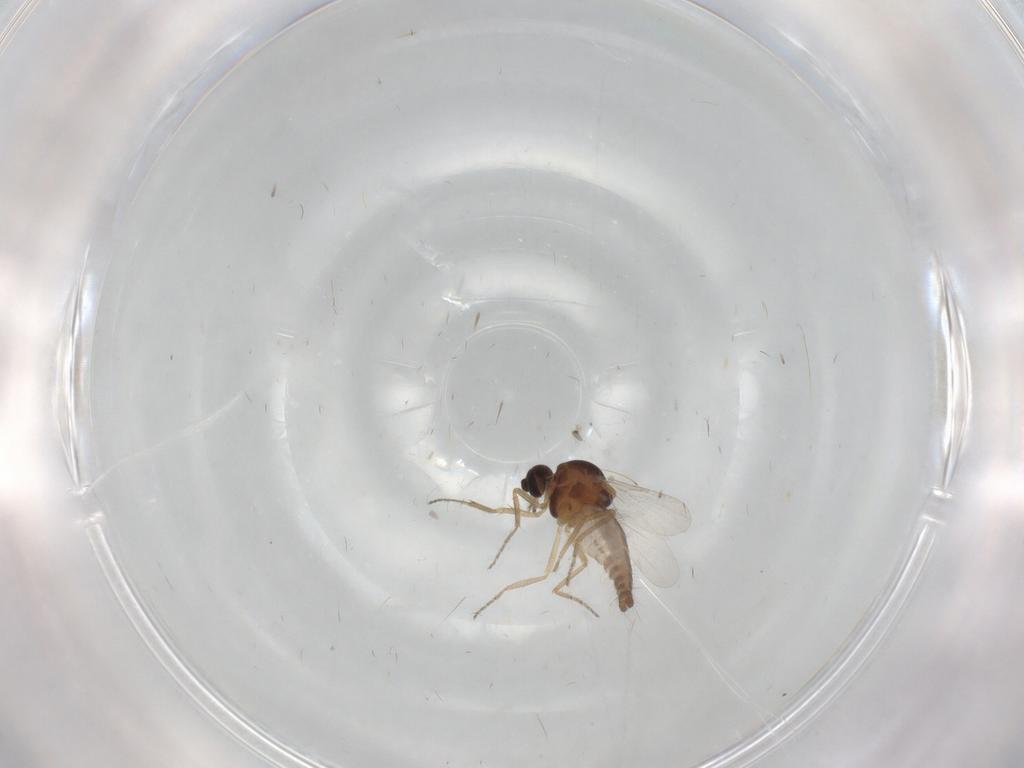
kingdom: Animalia
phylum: Arthropoda
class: Insecta
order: Diptera
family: Ceratopogonidae
